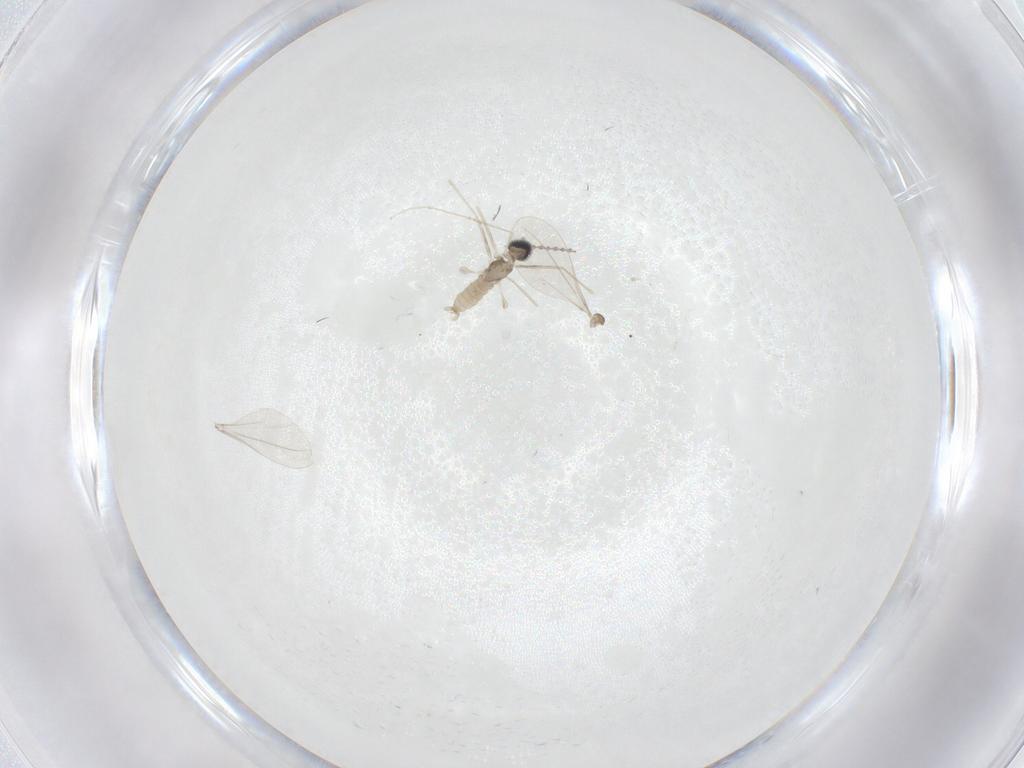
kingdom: Animalia
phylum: Arthropoda
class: Insecta
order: Diptera
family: Cecidomyiidae
